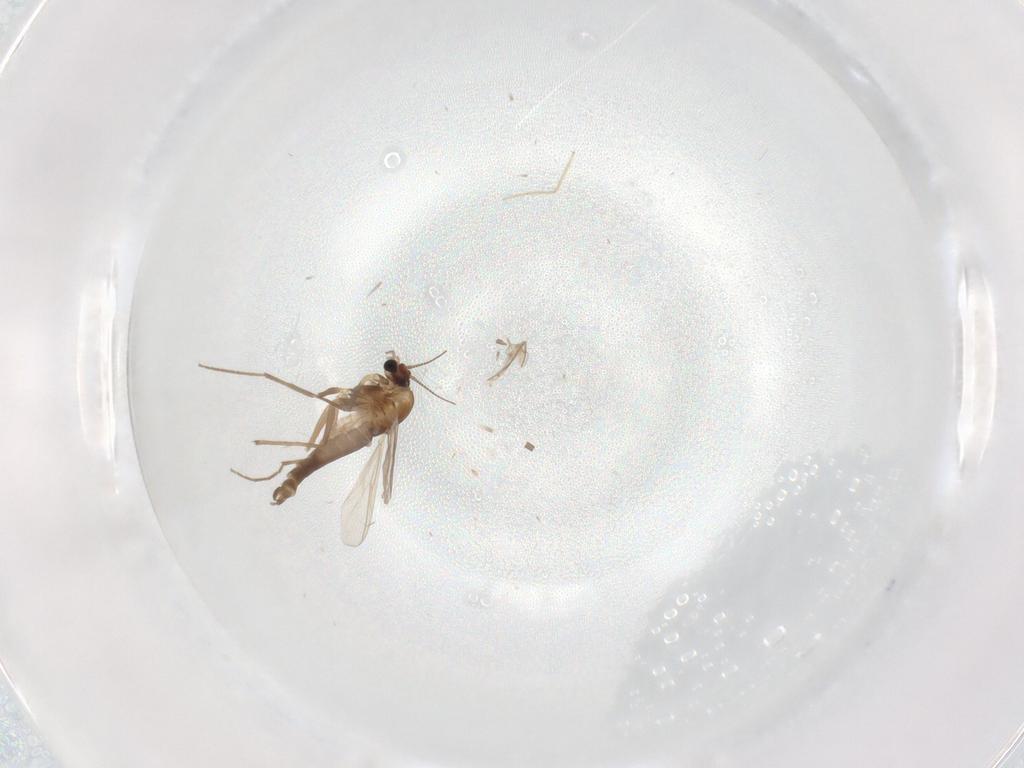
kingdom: Animalia
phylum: Arthropoda
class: Insecta
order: Diptera
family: Chironomidae
